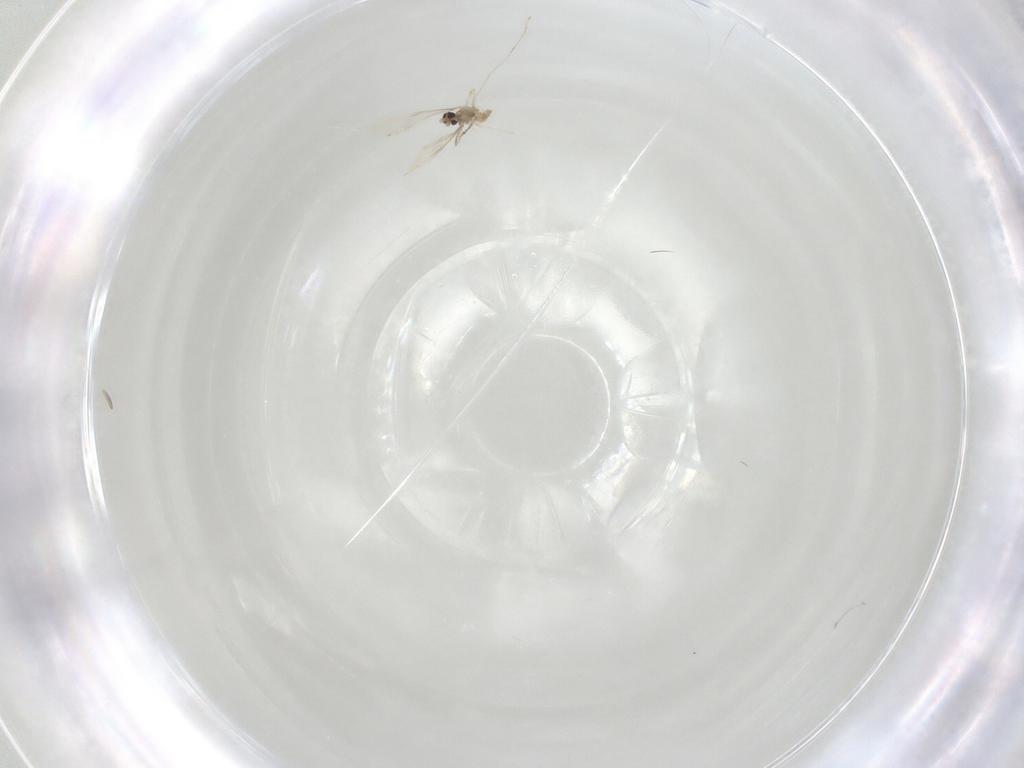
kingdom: Animalia
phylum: Arthropoda
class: Insecta
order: Diptera
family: Cecidomyiidae
